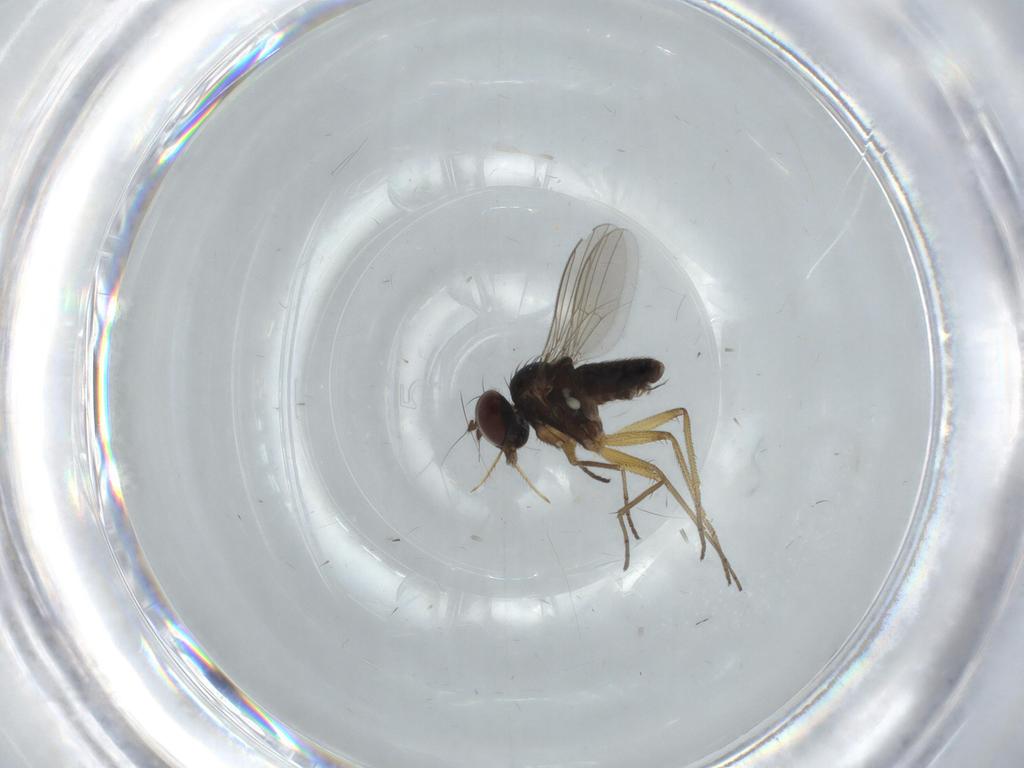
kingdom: Animalia
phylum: Arthropoda
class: Insecta
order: Diptera
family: Dolichopodidae
